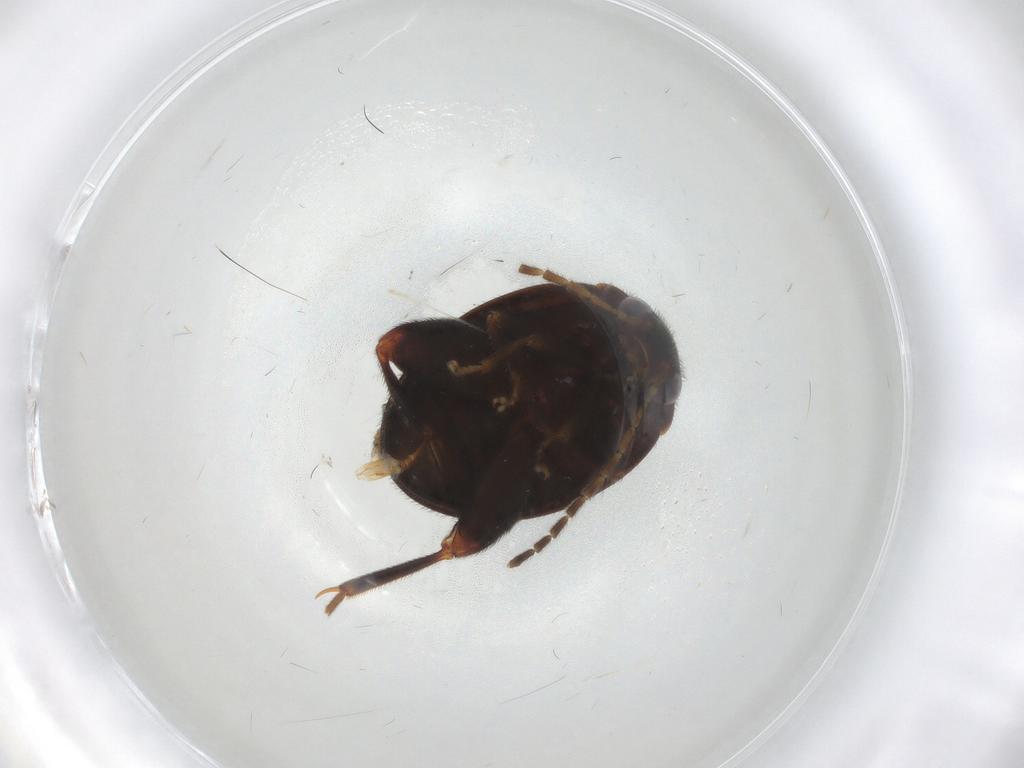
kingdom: Animalia
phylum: Arthropoda
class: Insecta
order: Coleoptera
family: Scirtidae
